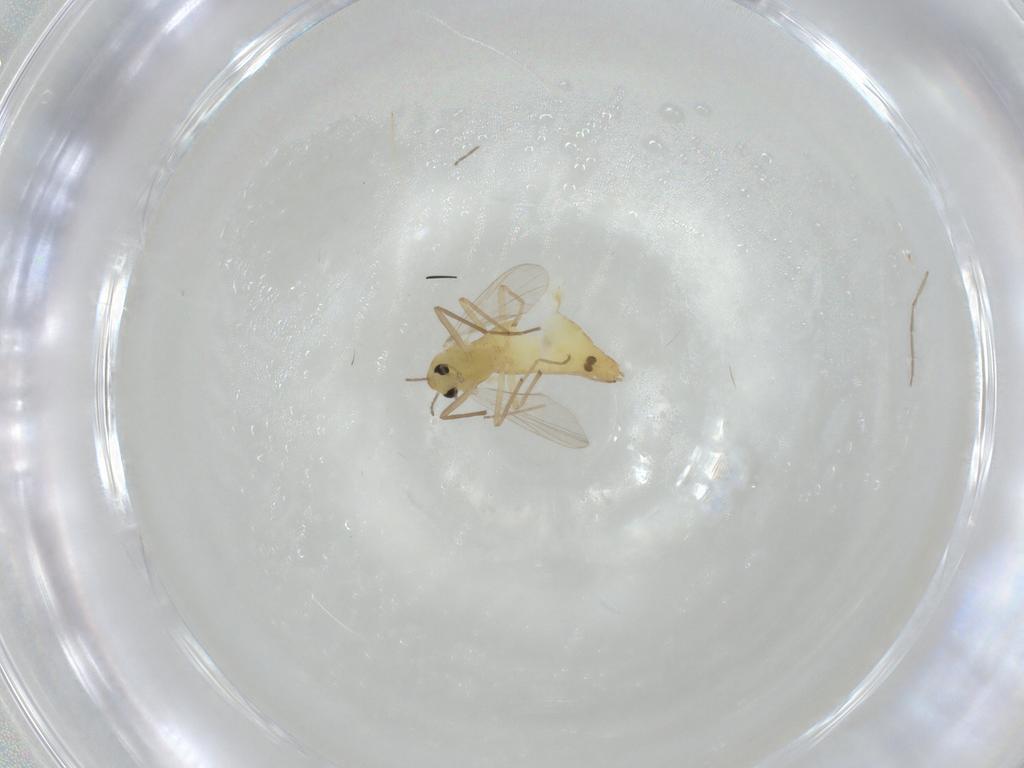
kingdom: Animalia
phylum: Arthropoda
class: Insecta
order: Diptera
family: Chironomidae
